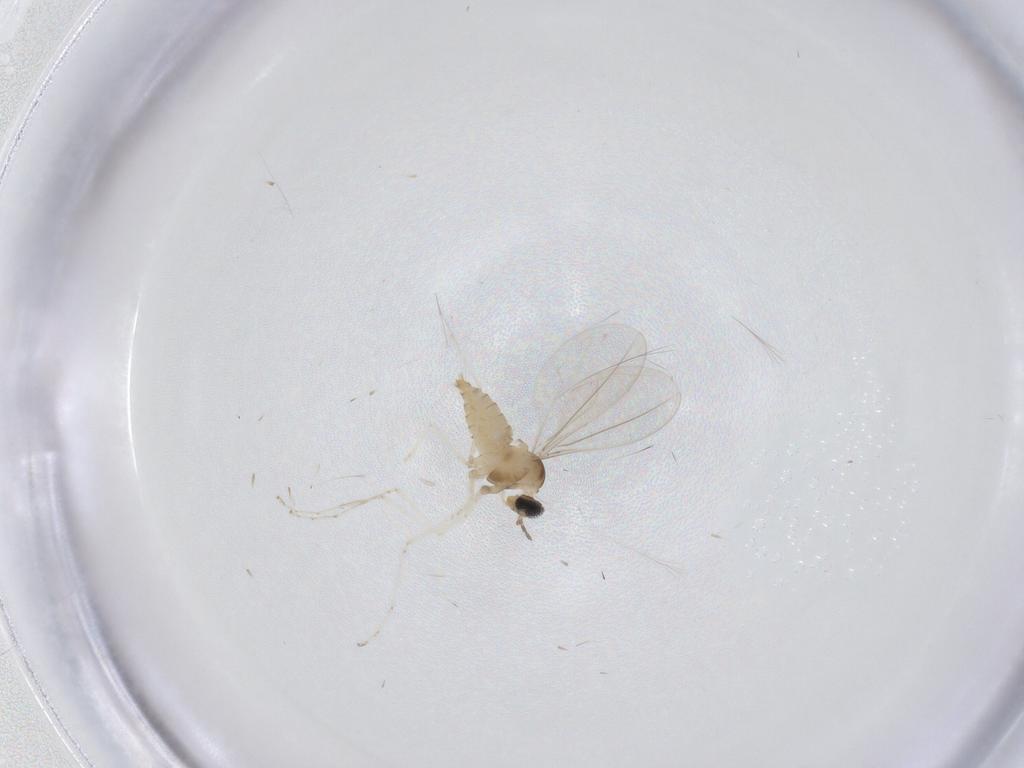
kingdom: Animalia
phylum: Arthropoda
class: Insecta
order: Diptera
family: Cecidomyiidae
